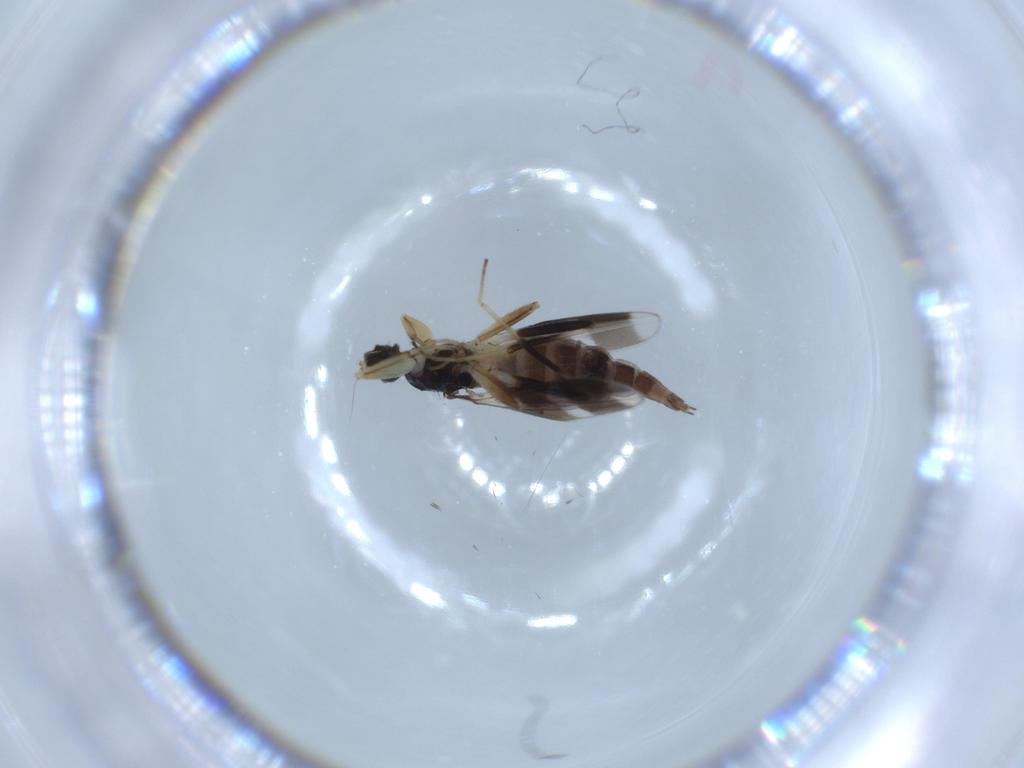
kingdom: Animalia
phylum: Arthropoda
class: Insecta
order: Diptera
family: Hybotidae
